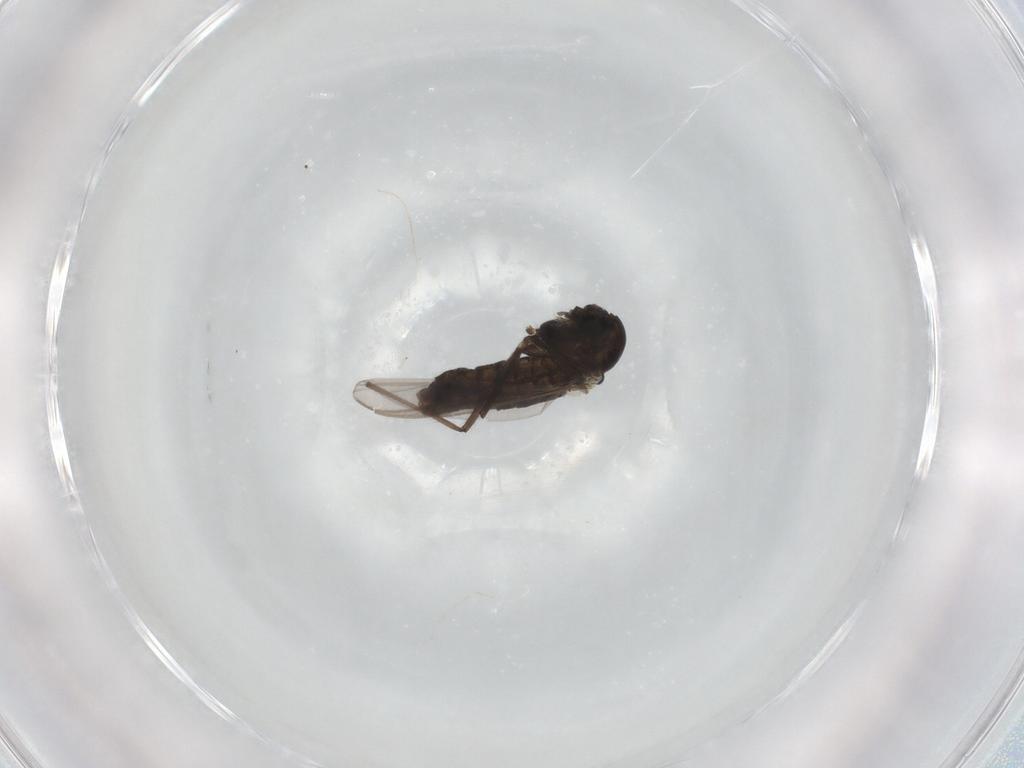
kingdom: Animalia
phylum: Arthropoda
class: Insecta
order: Diptera
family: Chironomidae
